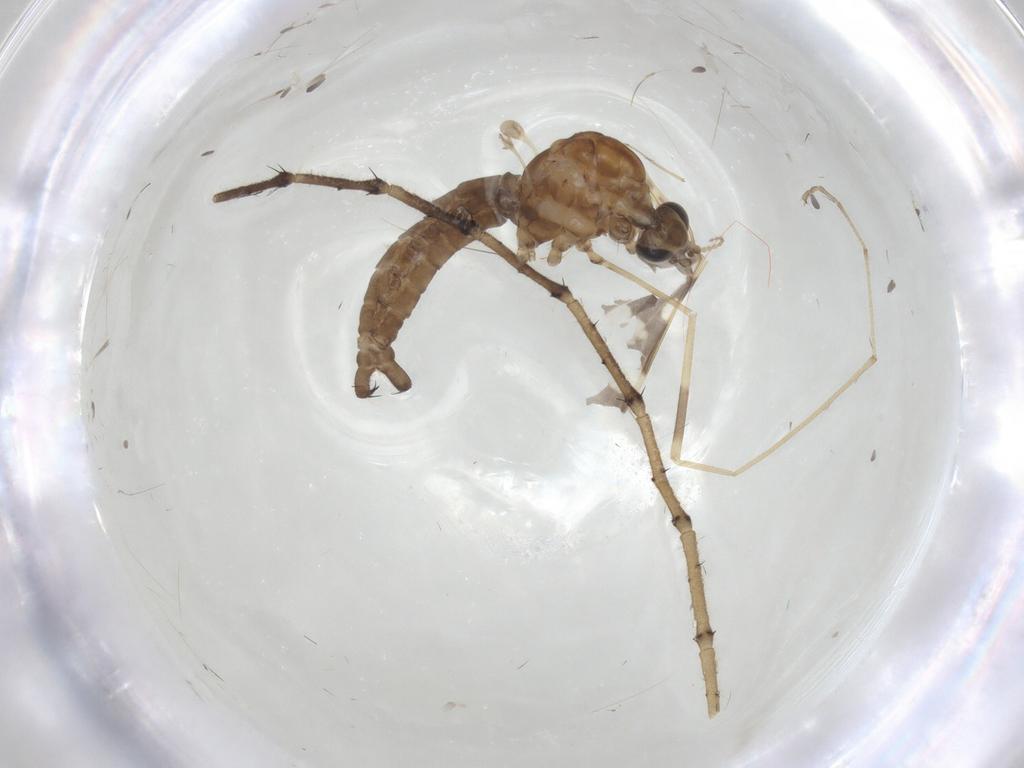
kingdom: Animalia
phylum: Arthropoda
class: Insecta
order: Diptera
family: Limoniidae
